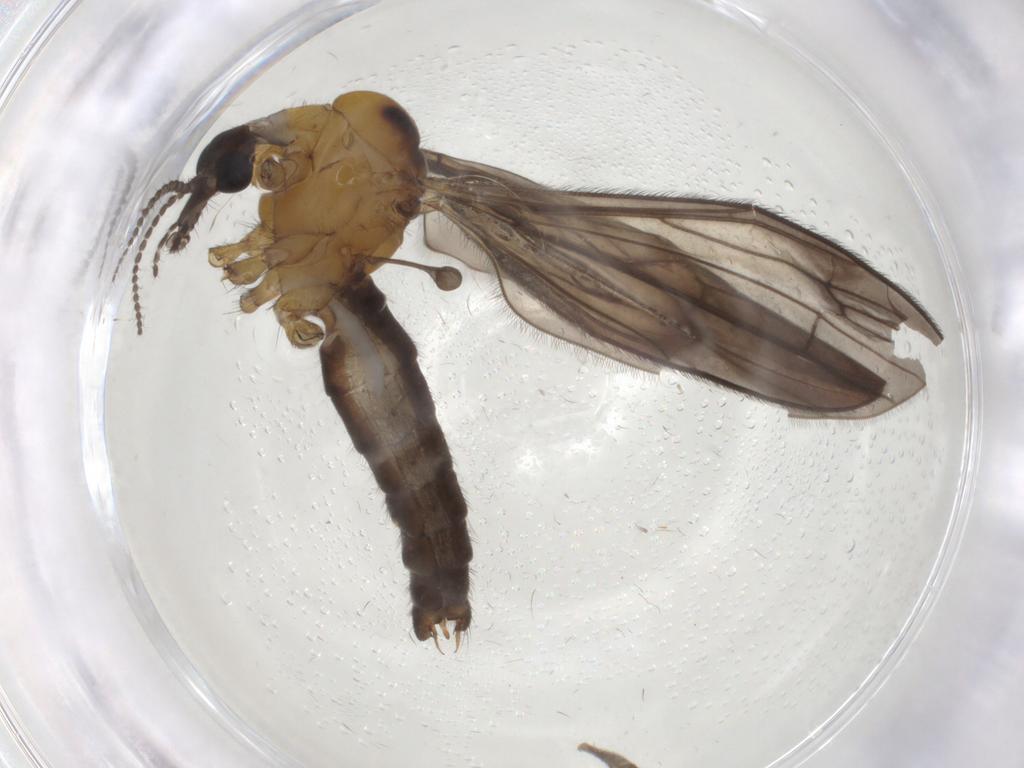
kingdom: Animalia
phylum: Arthropoda
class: Insecta
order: Diptera
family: Limoniidae
